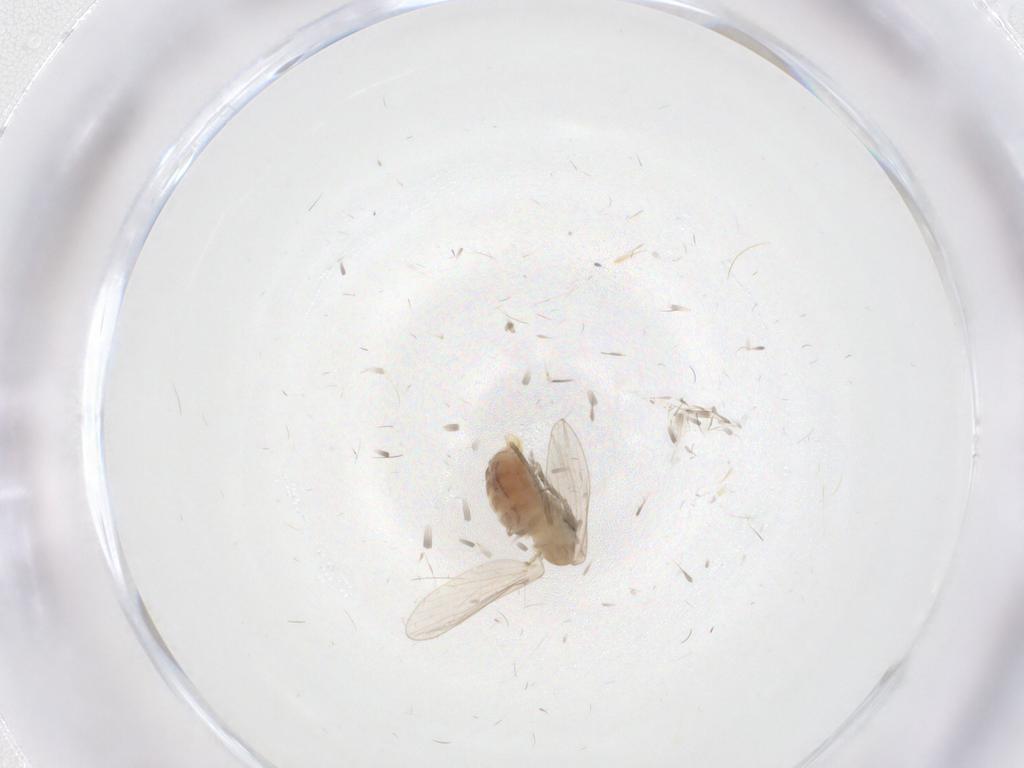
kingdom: Animalia
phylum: Arthropoda
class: Insecta
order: Diptera
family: Psychodidae
